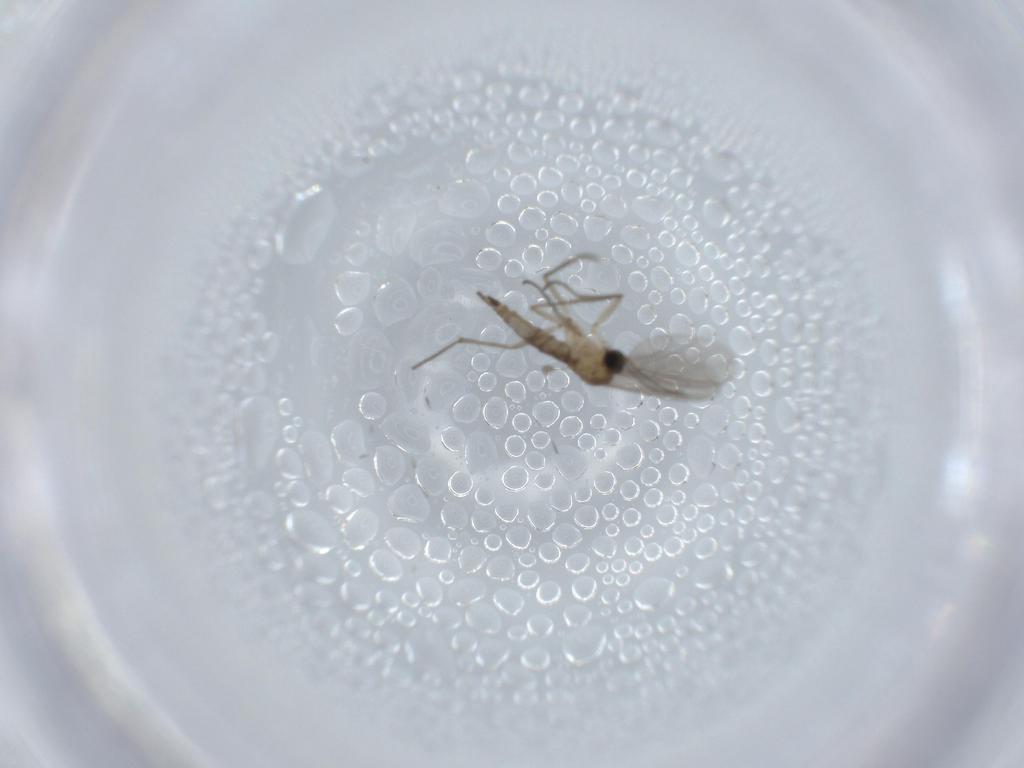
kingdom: Animalia
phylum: Arthropoda
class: Insecta
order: Diptera
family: Sciaridae
